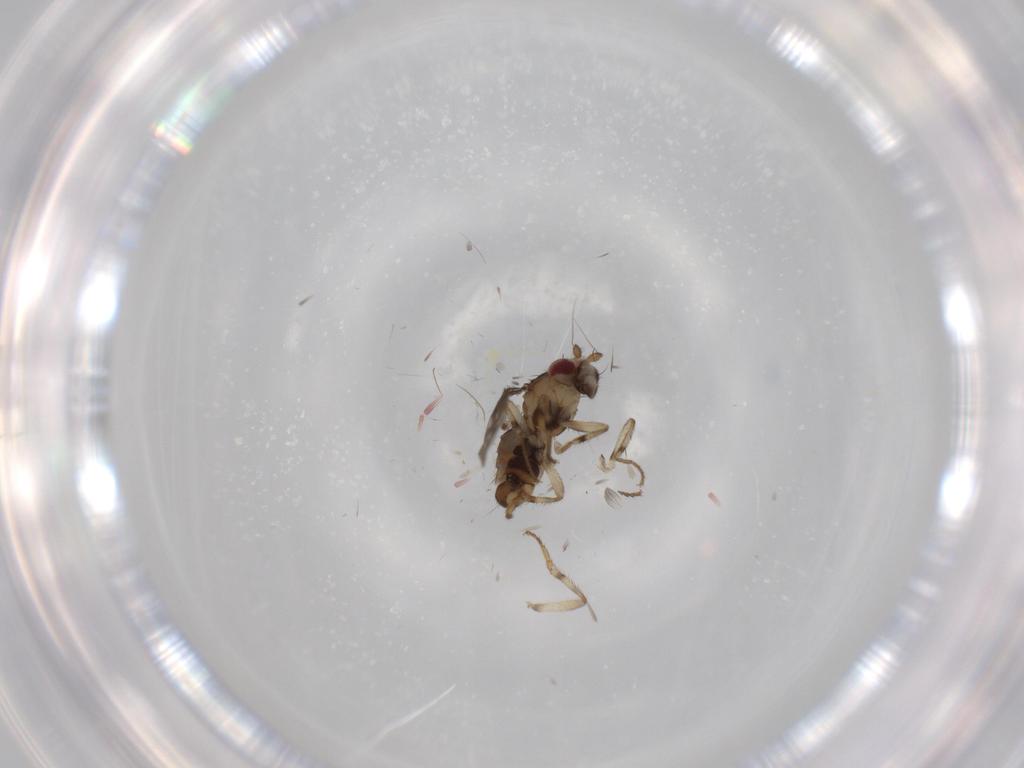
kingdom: Animalia
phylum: Arthropoda
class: Insecta
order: Diptera
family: Sphaeroceridae
